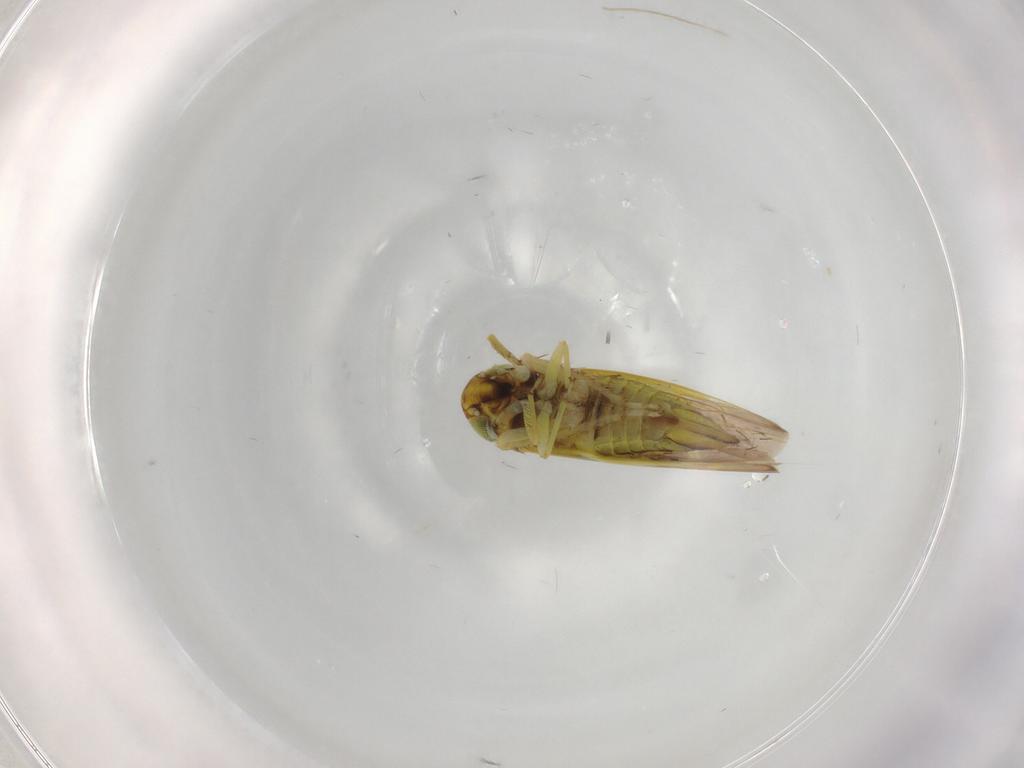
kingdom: Animalia
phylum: Arthropoda
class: Insecta
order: Hemiptera
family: Cicadellidae
